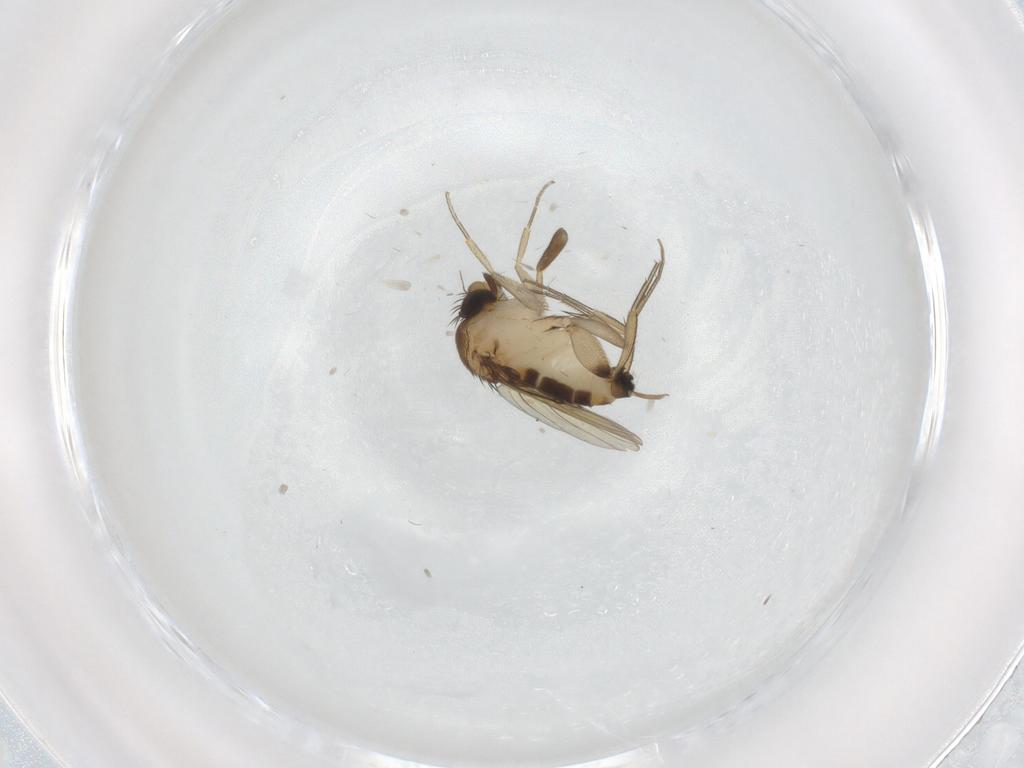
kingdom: Animalia
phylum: Arthropoda
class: Insecta
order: Diptera
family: Phoridae
